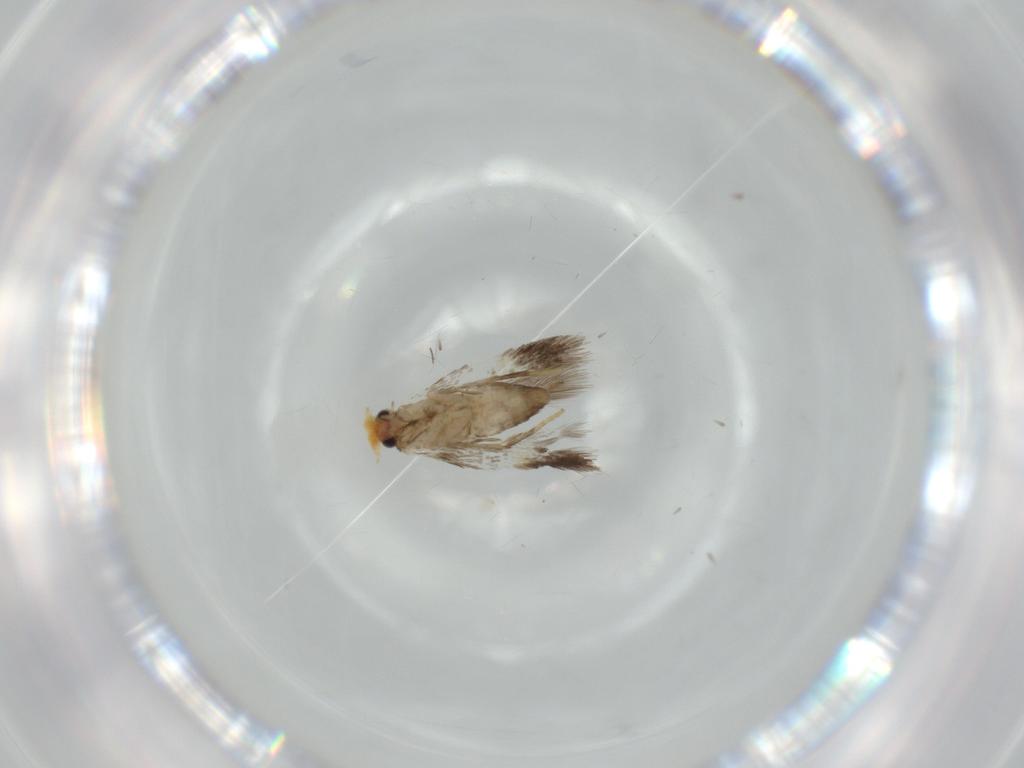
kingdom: Animalia
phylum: Arthropoda
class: Insecta
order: Lepidoptera
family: Nepticulidae
